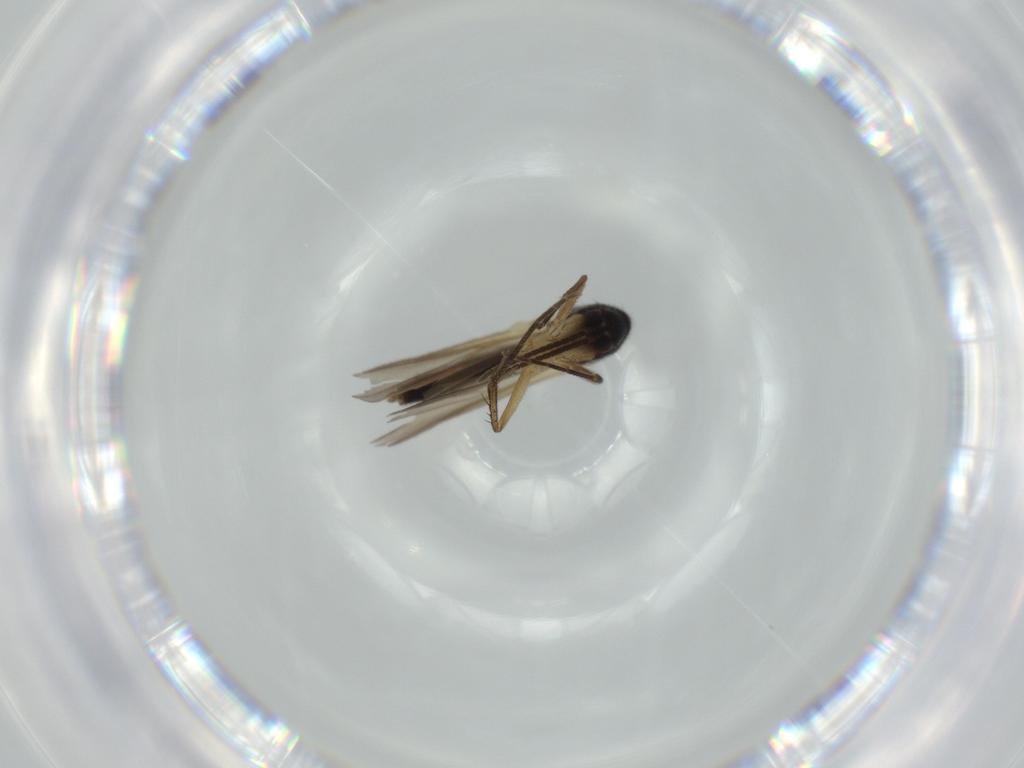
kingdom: Animalia
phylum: Arthropoda
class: Insecta
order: Diptera
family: Mycetophilidae
